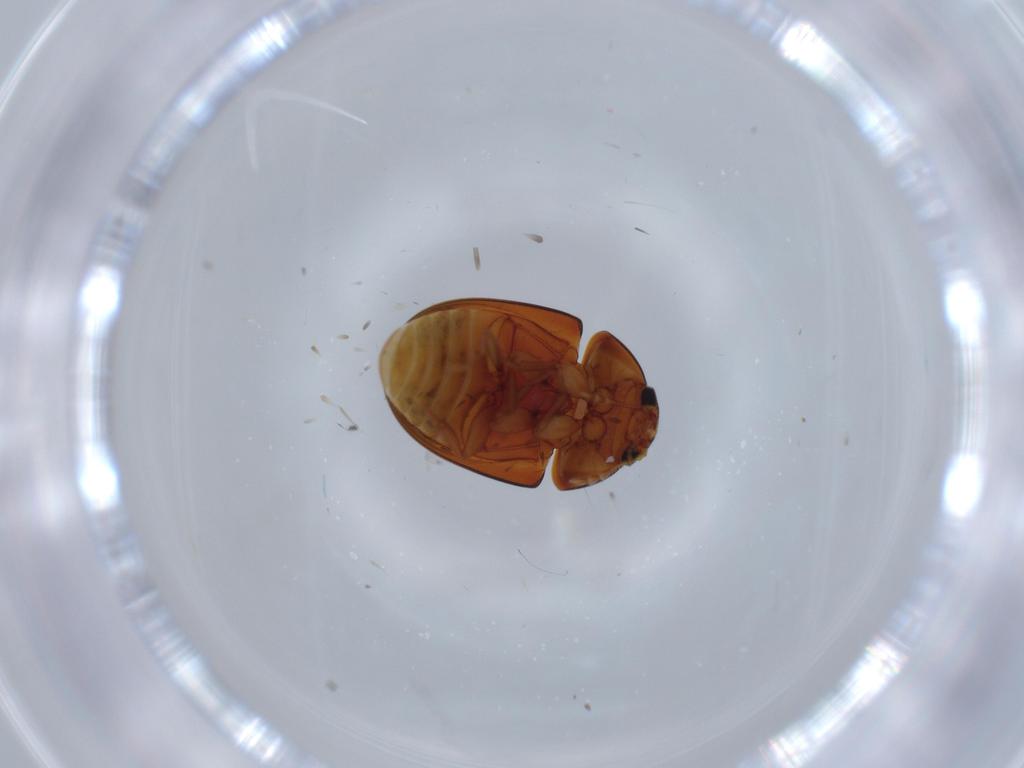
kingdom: Animalia
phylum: Arthropoda
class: Insecta
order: Coleoptera
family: Phalacridae
